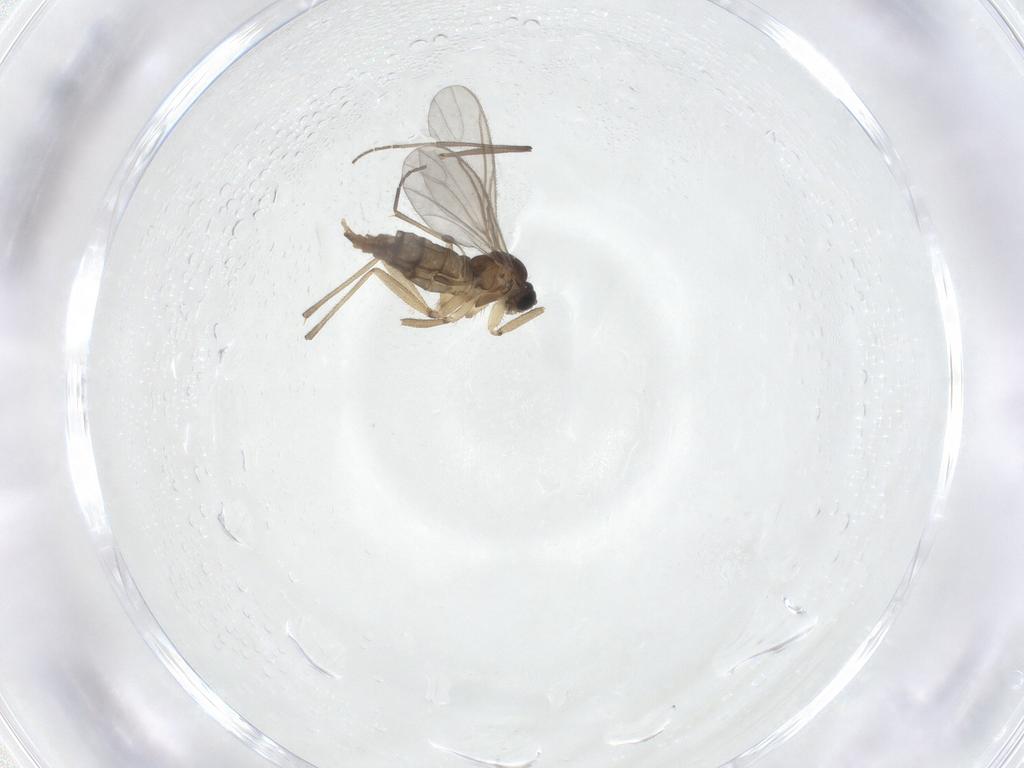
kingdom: Animalia
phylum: Arthropoda
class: Insecta
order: Diptera
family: Sciaridae
